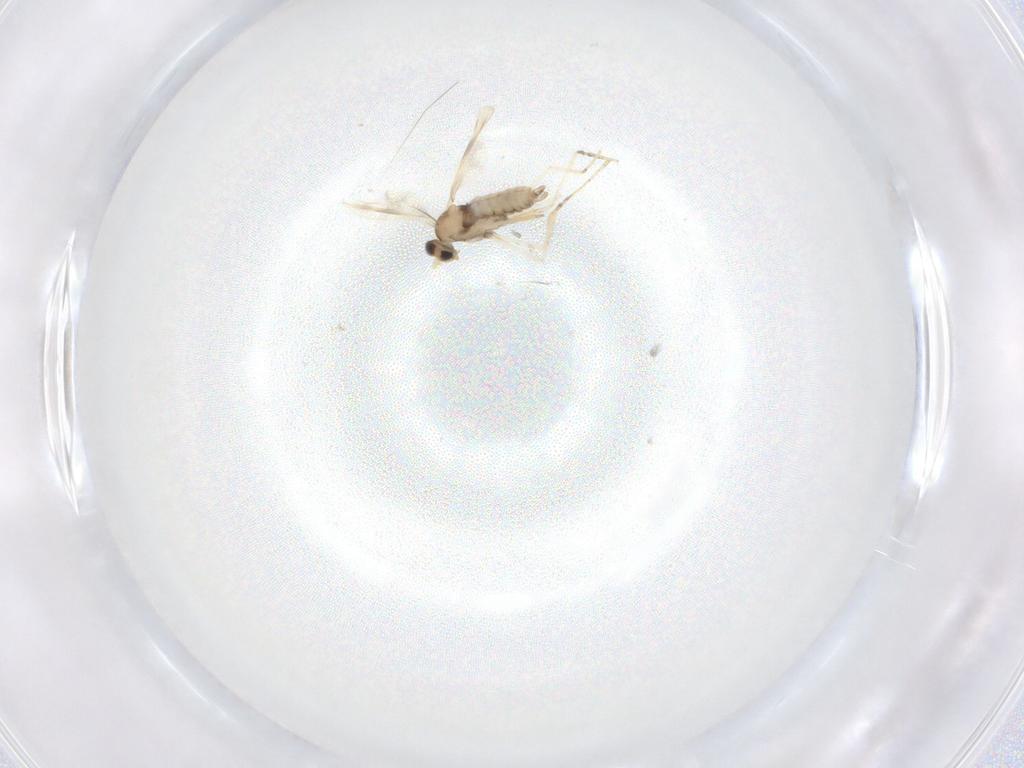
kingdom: Animalia
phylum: Arthropoda
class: Insecta
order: Diptera
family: Cecidomyiidae
